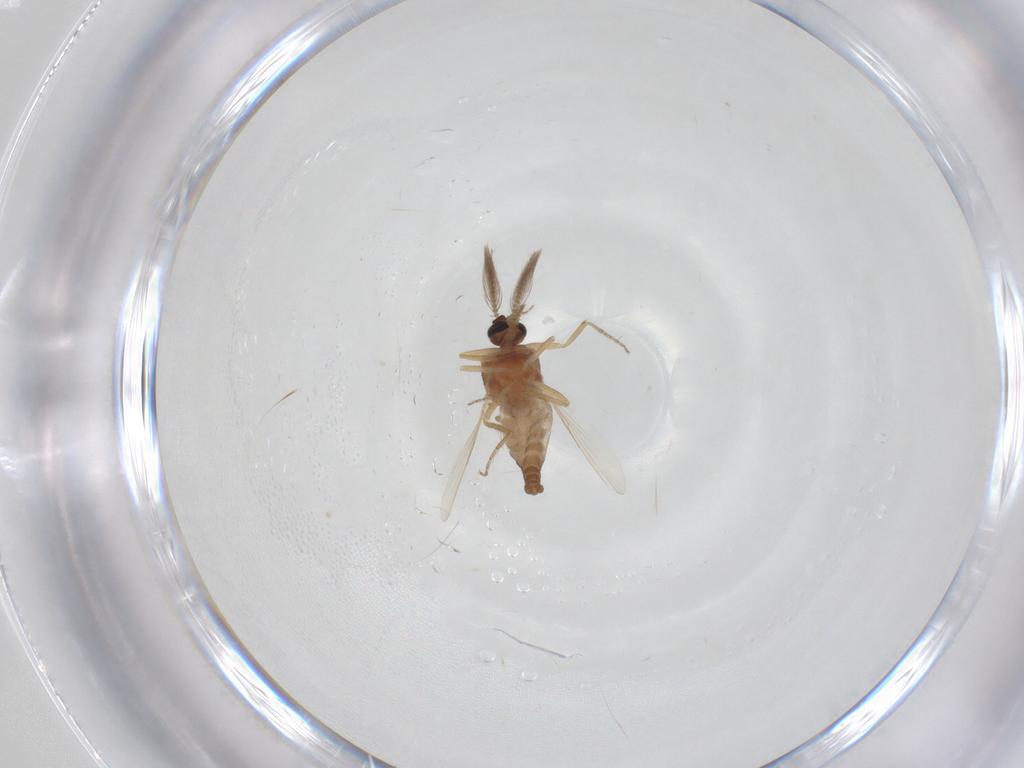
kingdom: Animalia
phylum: Arthropoda
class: Insecta
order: Diptera
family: Ceratopogonidae
